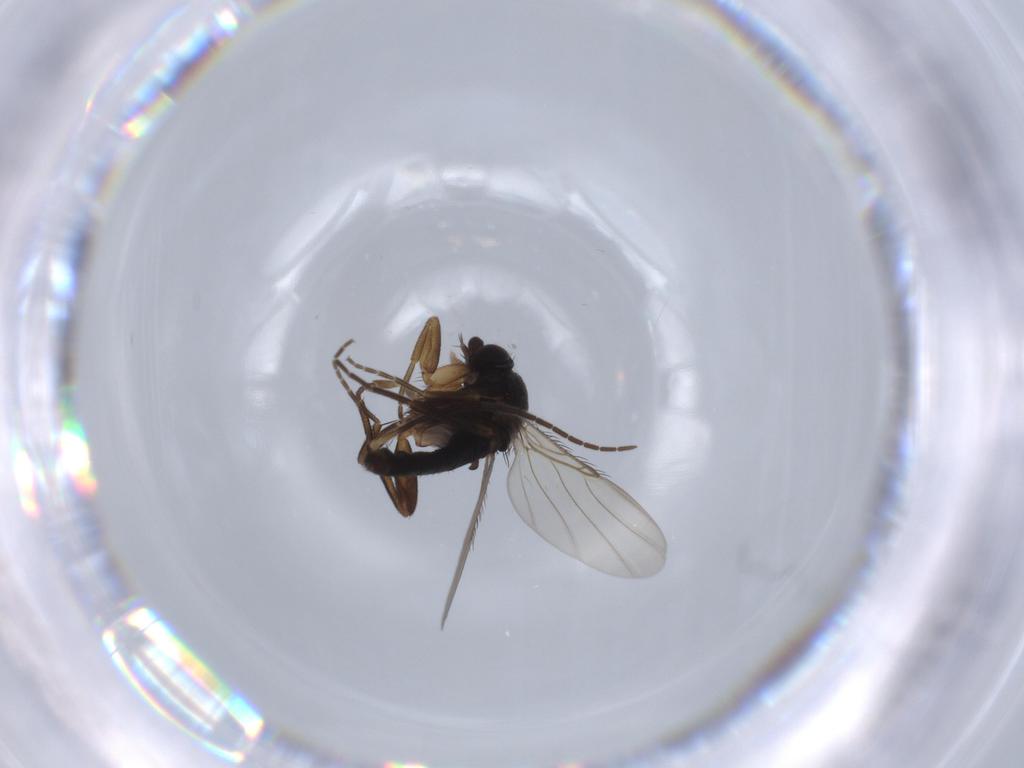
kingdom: Animalia
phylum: Arthropoda
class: Insecta
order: Diptera
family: Phoridae
